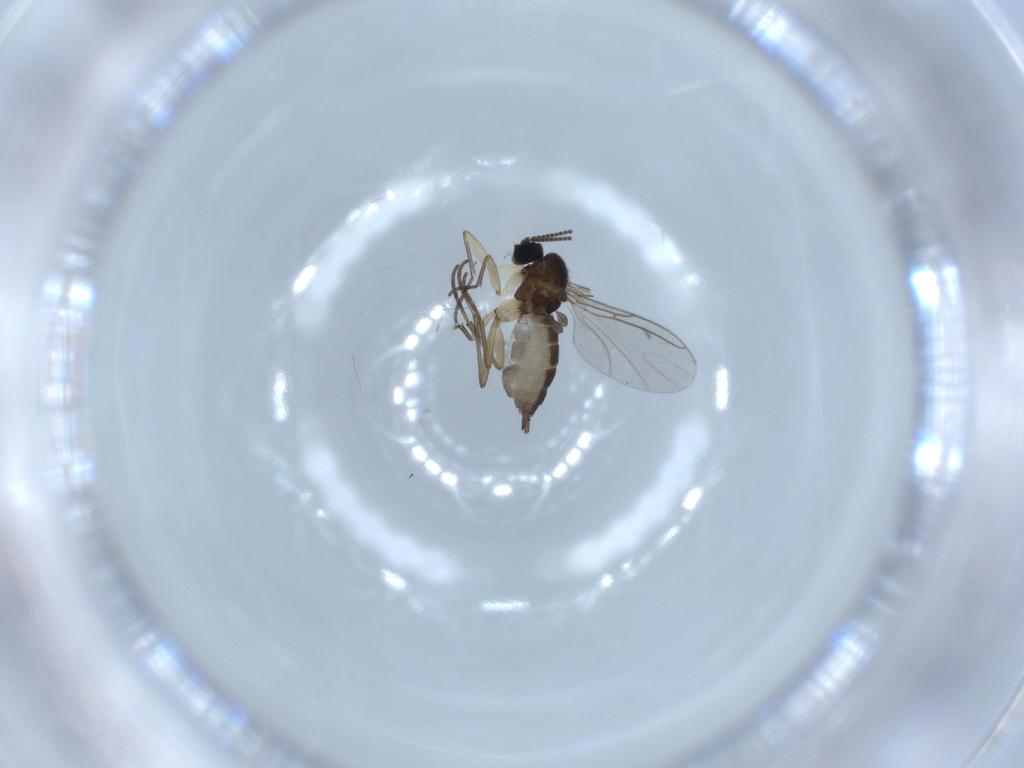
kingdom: Animalia
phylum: Arthropoda
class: Insecta
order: Diptera
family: Sciaridae
